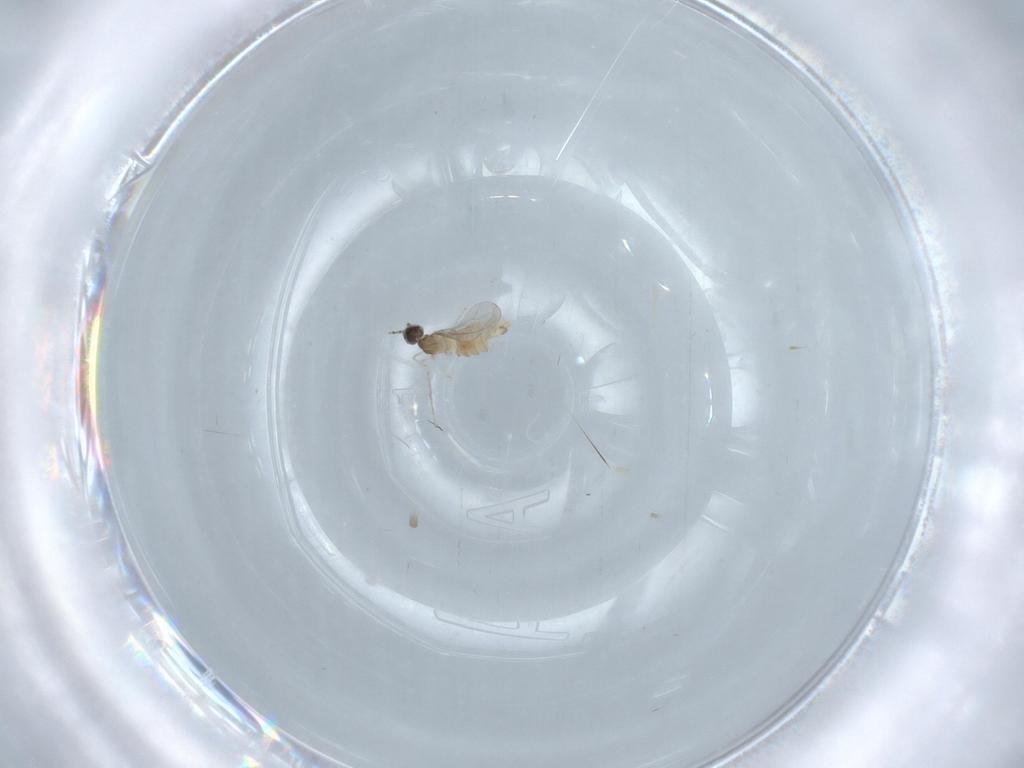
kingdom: Animalia
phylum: Arthropoda
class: Insecta
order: Diptera
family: Cecidomyiidae
